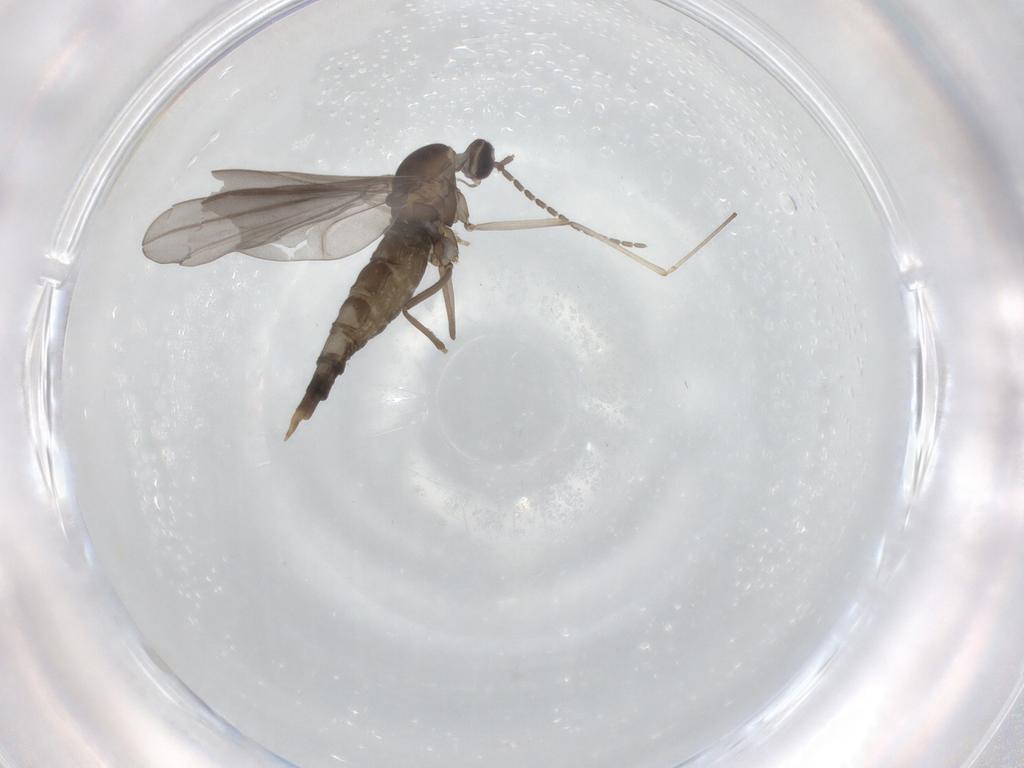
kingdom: Animalia
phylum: Arthropoda
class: Insecta
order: Diptera
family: Cecidomyiidae
